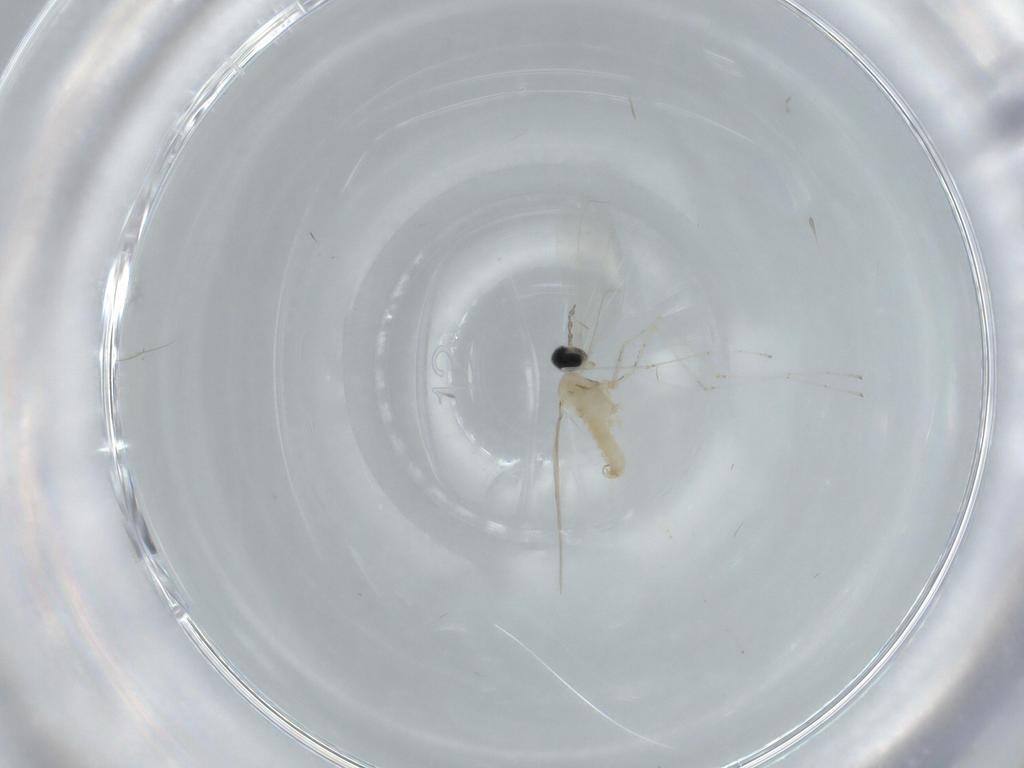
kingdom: Animalia
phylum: Arthropoda
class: Insecta
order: Diptera
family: Cecidomyiidae
